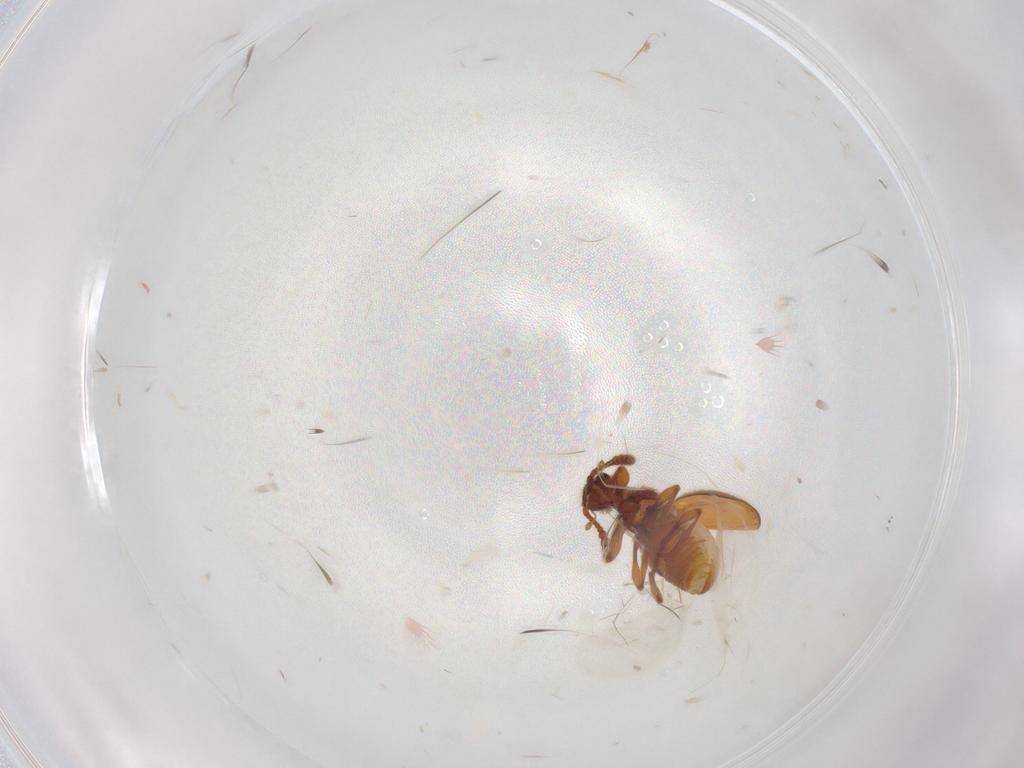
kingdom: Animalia
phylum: Arthropoda
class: Insecta
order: Coleoptera
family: Staphylinidae
